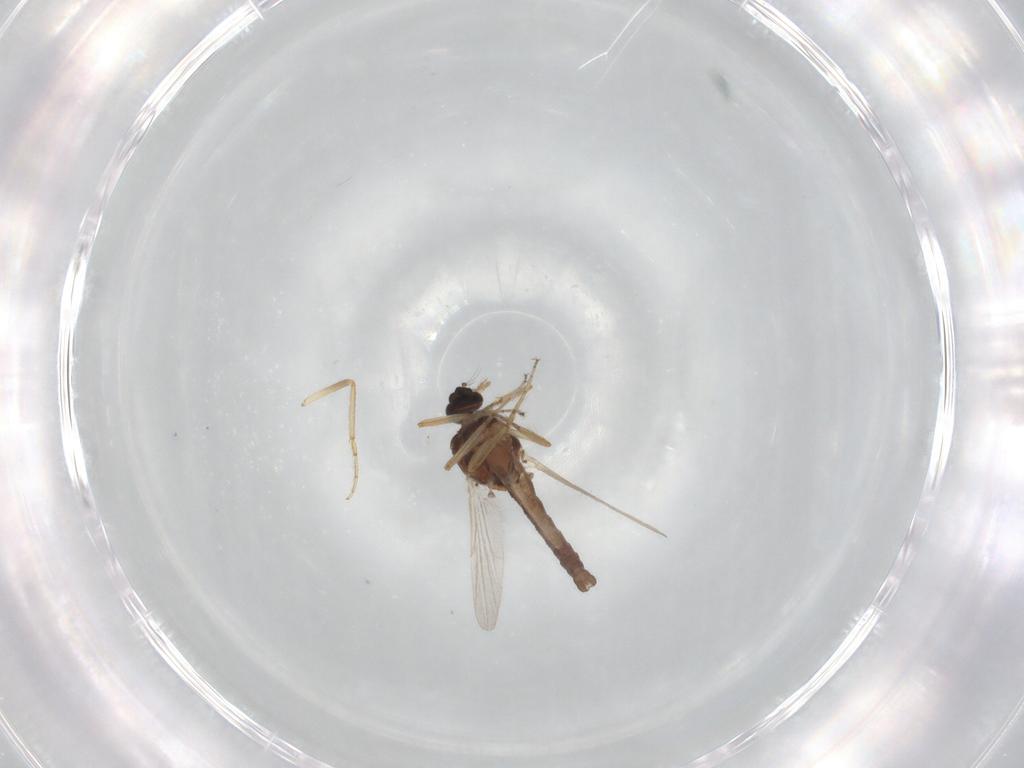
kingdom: Animalia
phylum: Arthropoda
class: Insecta
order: Diptera
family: Ceratopogonidae
